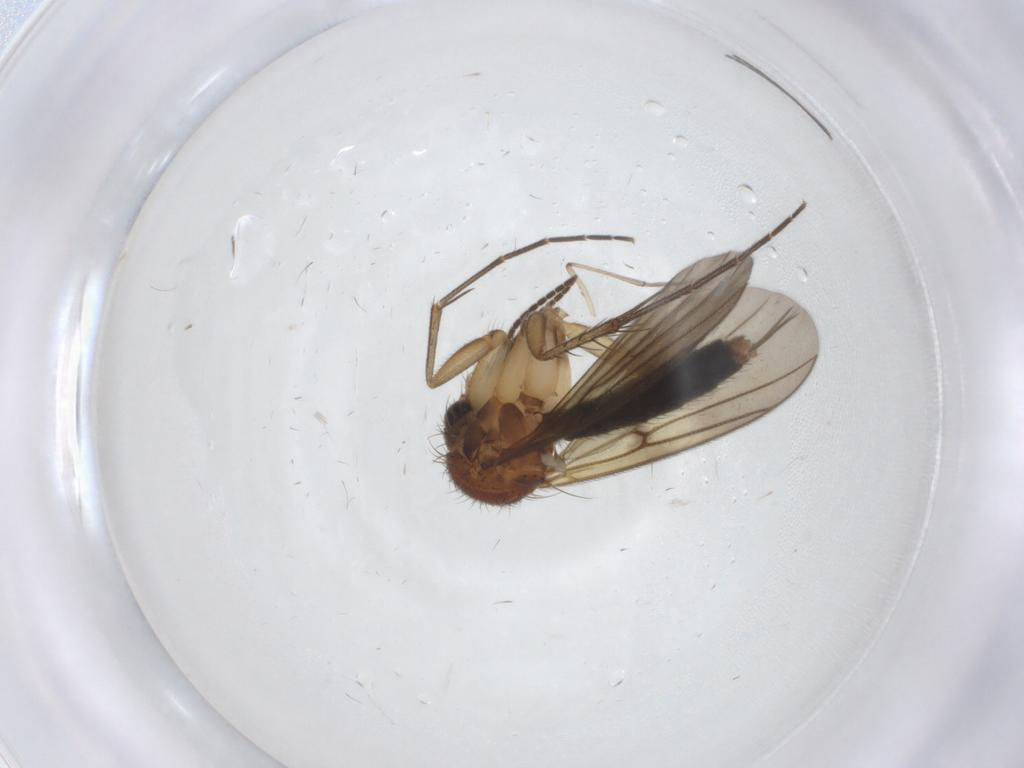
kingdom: Animalia
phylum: Arthropoda
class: Insecta
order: Diptera
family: Mycetophilidae
